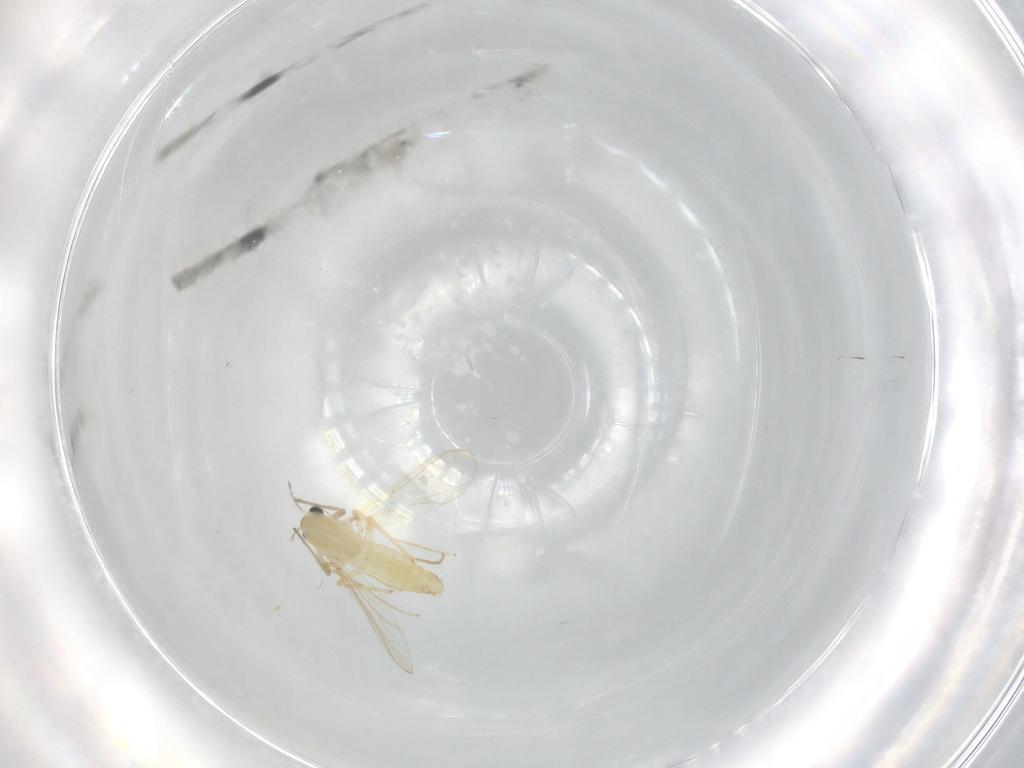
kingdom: Animalia
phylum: Arthropoda
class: Insecta
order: Diptera
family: Chironomidae
